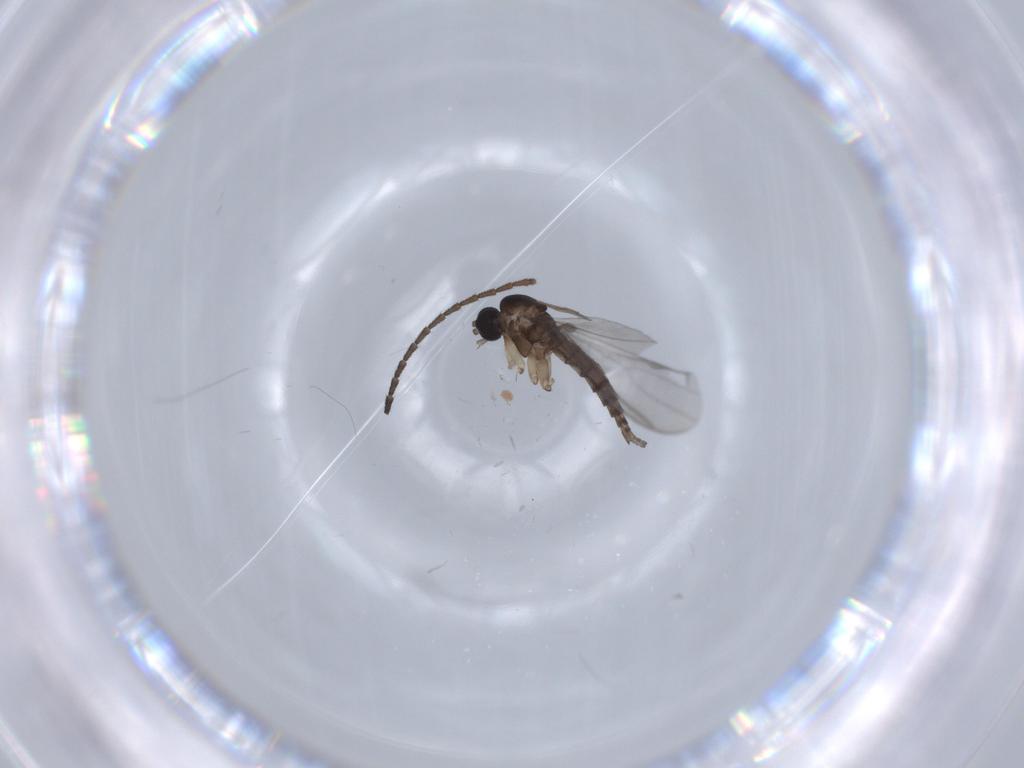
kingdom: Animalia
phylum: Arthropoda
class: Insecta
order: Diptera
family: Sciaridae
